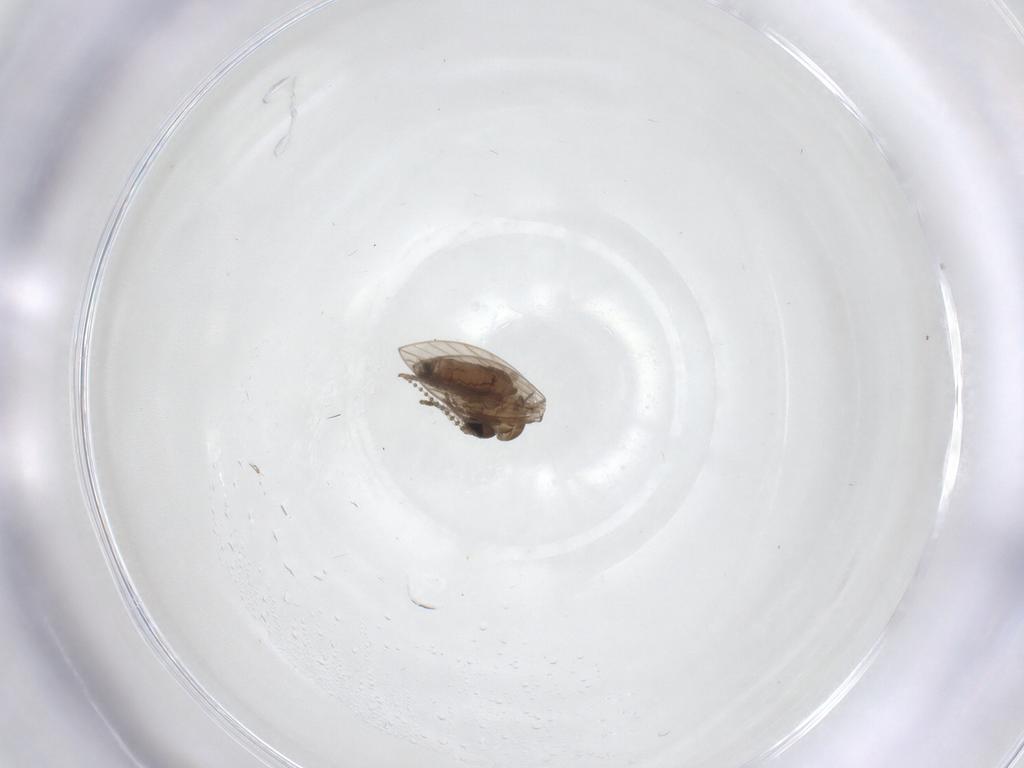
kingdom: Animalia
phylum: Arthropoda
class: Insecta
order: Diptera
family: Psychodidae
